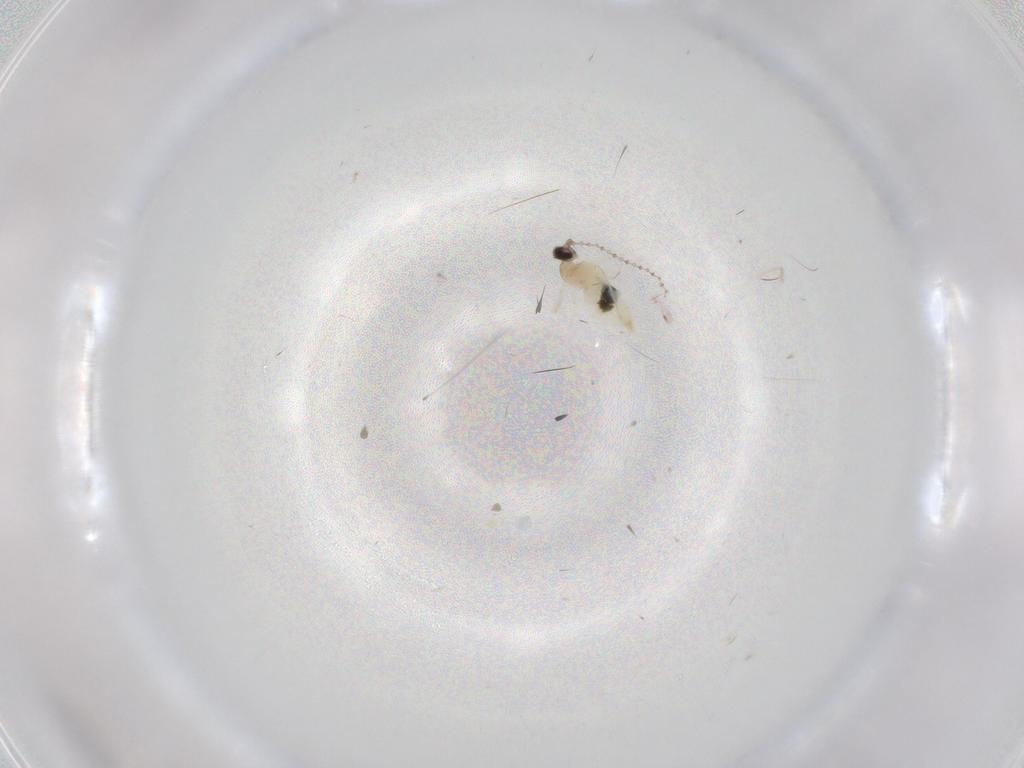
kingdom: Animalia
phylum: Arthropoda
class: Insecta
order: Diptera
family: Cecidomyiidae
